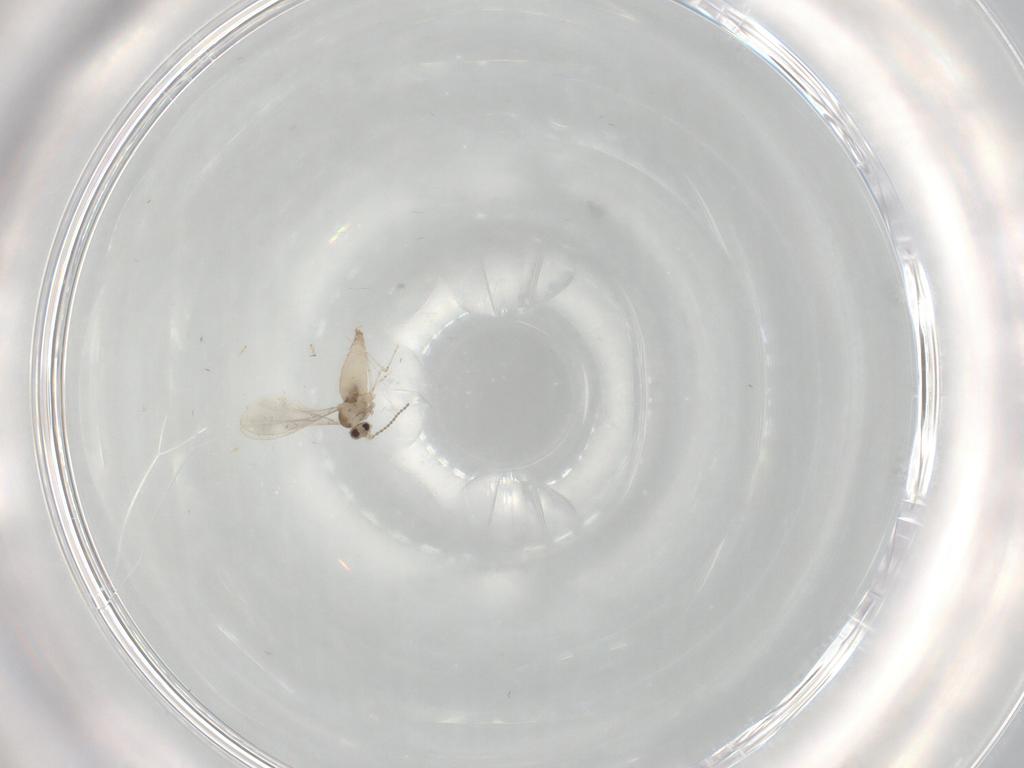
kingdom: Animalia
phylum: Arthropoda
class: Insecta
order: Diptera
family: Cecidomyiidae
